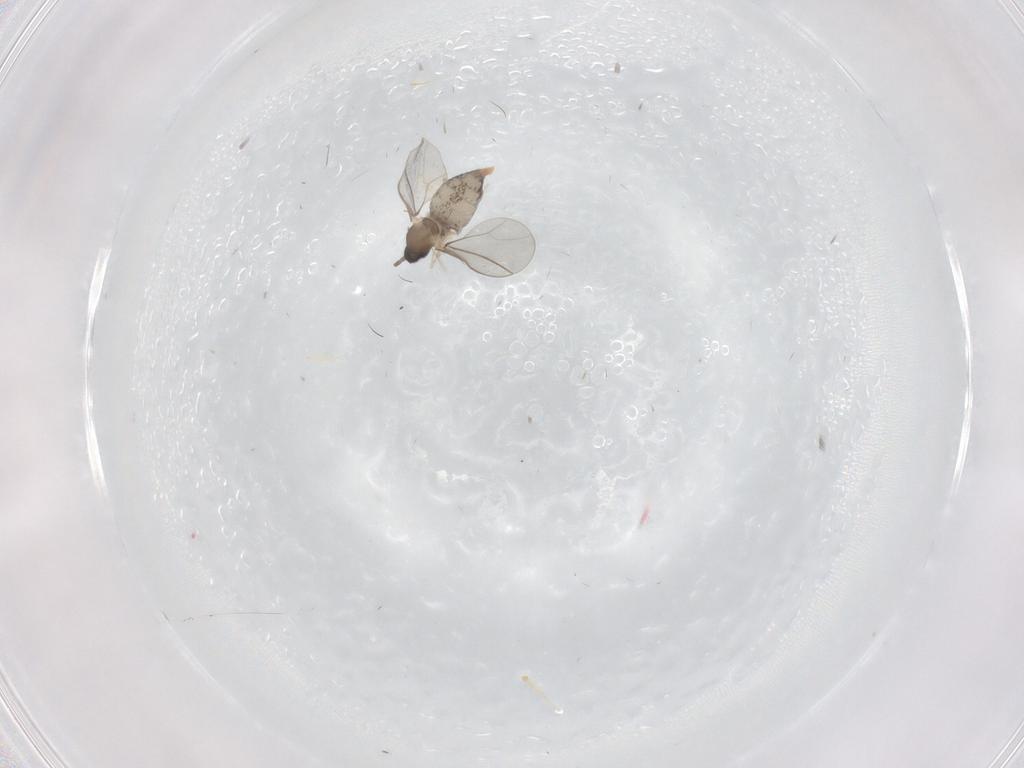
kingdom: Animalia
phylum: Arthropoda
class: Insecta
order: Diptera
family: Cecidomyiidae
